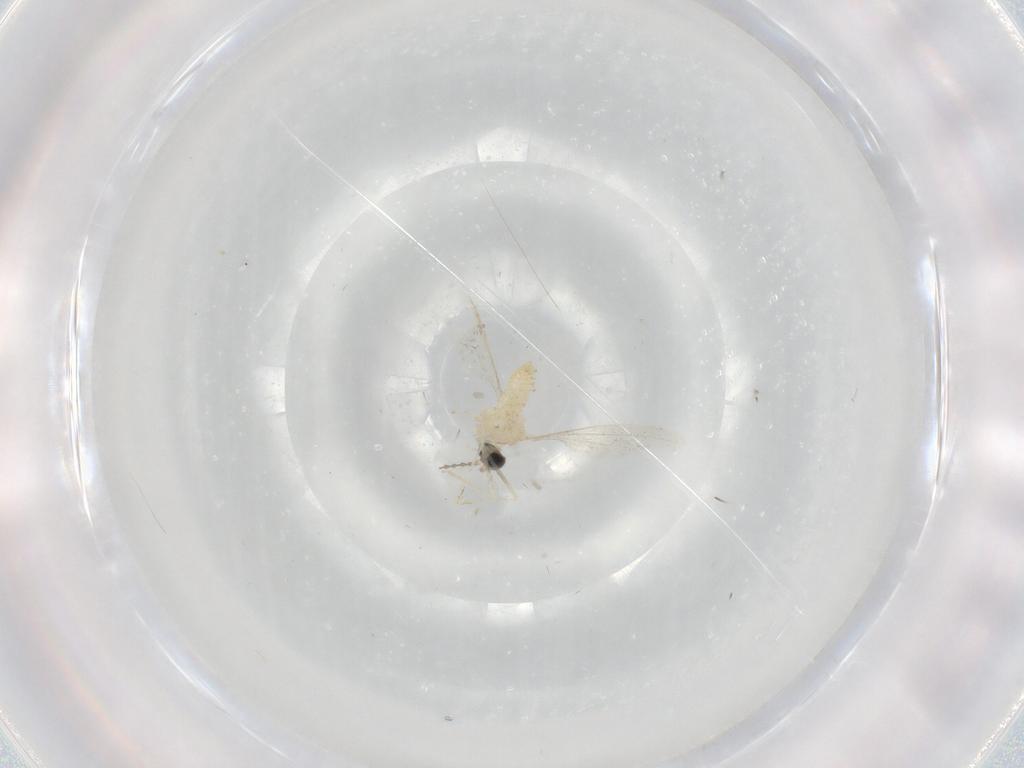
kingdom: Animalia
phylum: Arthropoda
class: Insecta
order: Diptera
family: Cecidomyiidae
